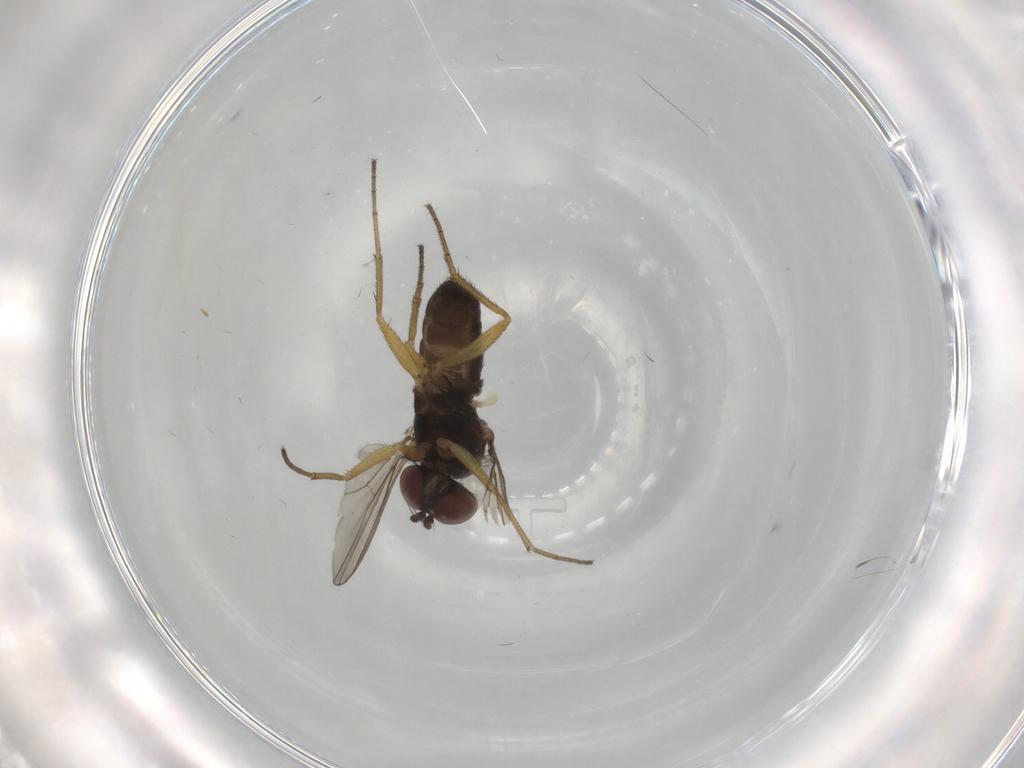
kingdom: Animalia
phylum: Arthropoda
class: Insecta
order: Diptera
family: Dolichopodidae
